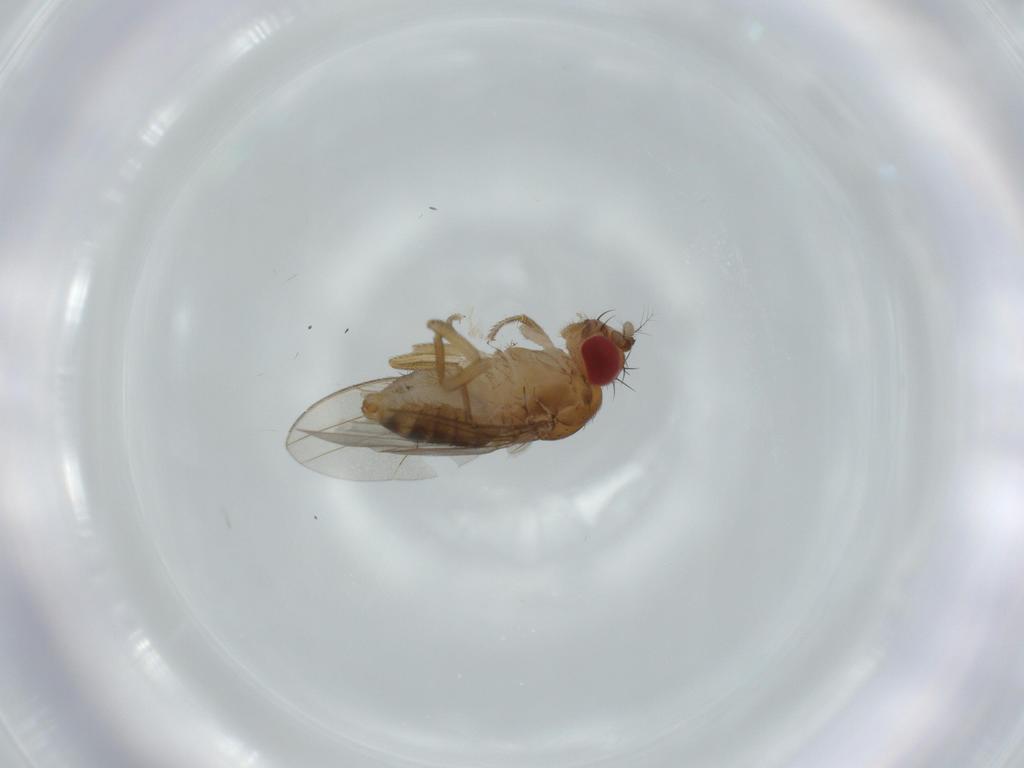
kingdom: Animalia
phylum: Arthropoda
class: Insecta
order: Diptera
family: Drosophilidae
